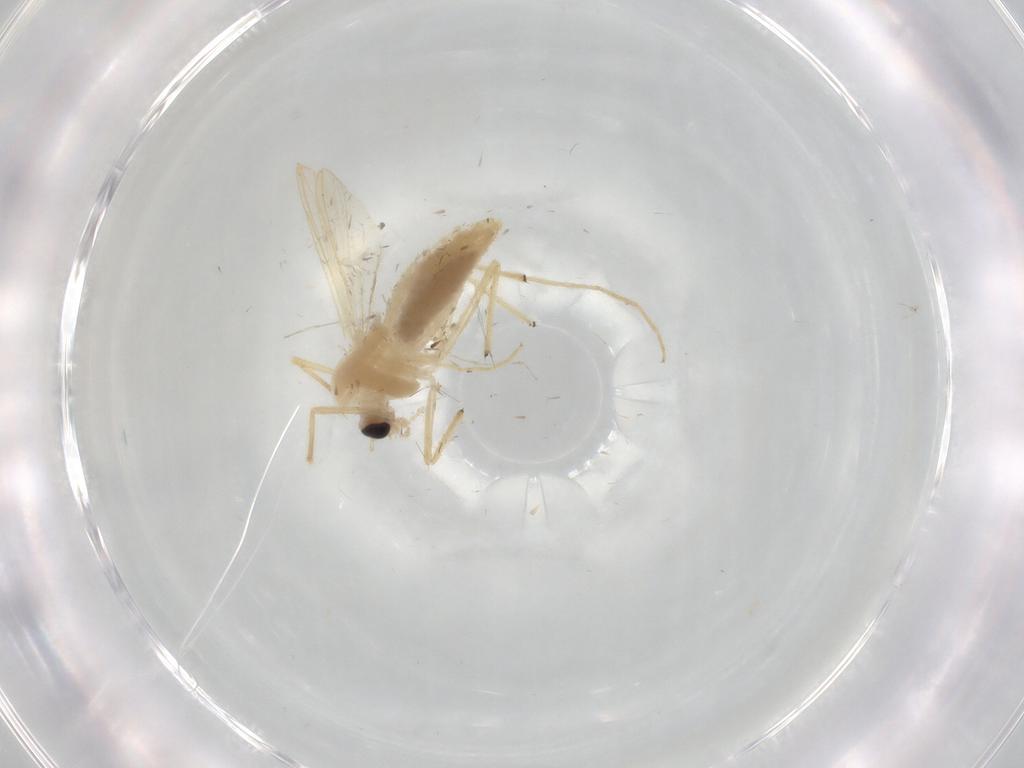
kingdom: Animalia
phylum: Arthropoda
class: Insecta
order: Diptera
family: Chironomidae
